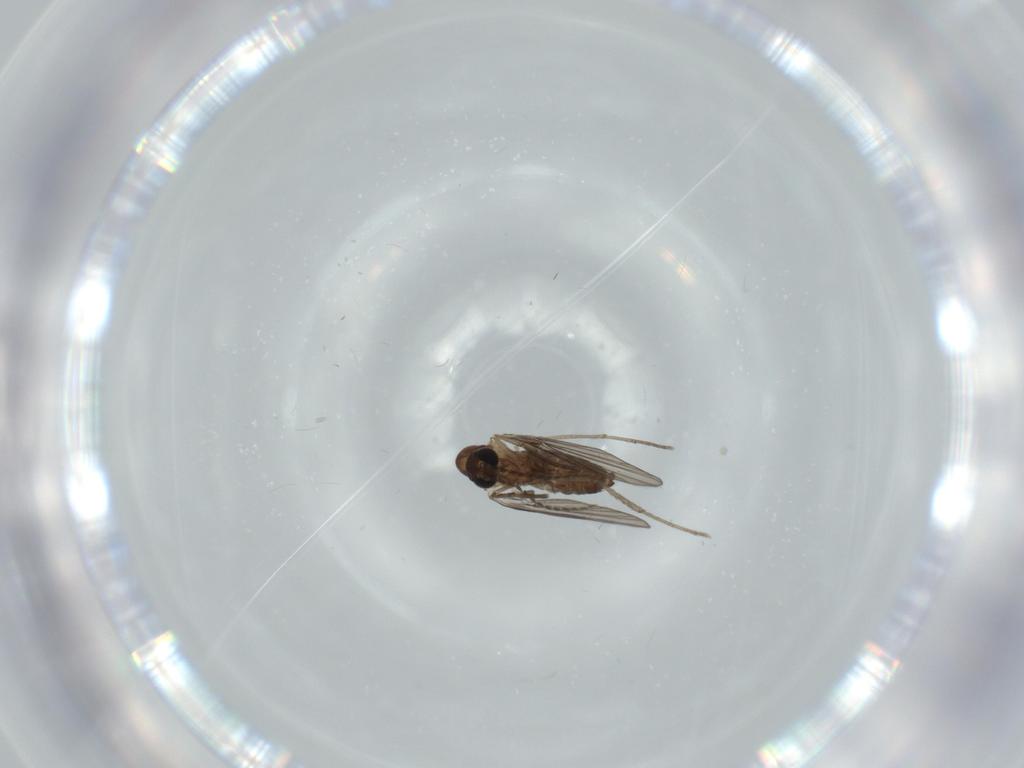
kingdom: Animalia
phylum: Arthropoda
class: Insecta
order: Diptera
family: Psychodidae
